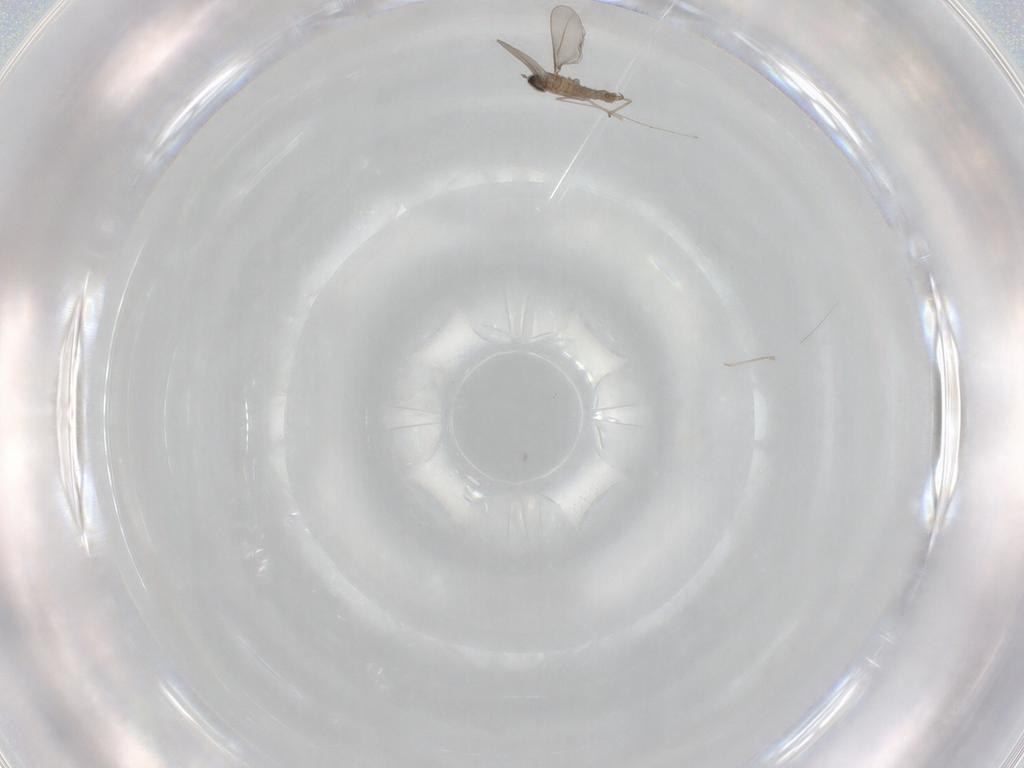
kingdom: Animalia
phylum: Arthropoda
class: Insecta
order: Diptera
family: Cecidomyiidae
